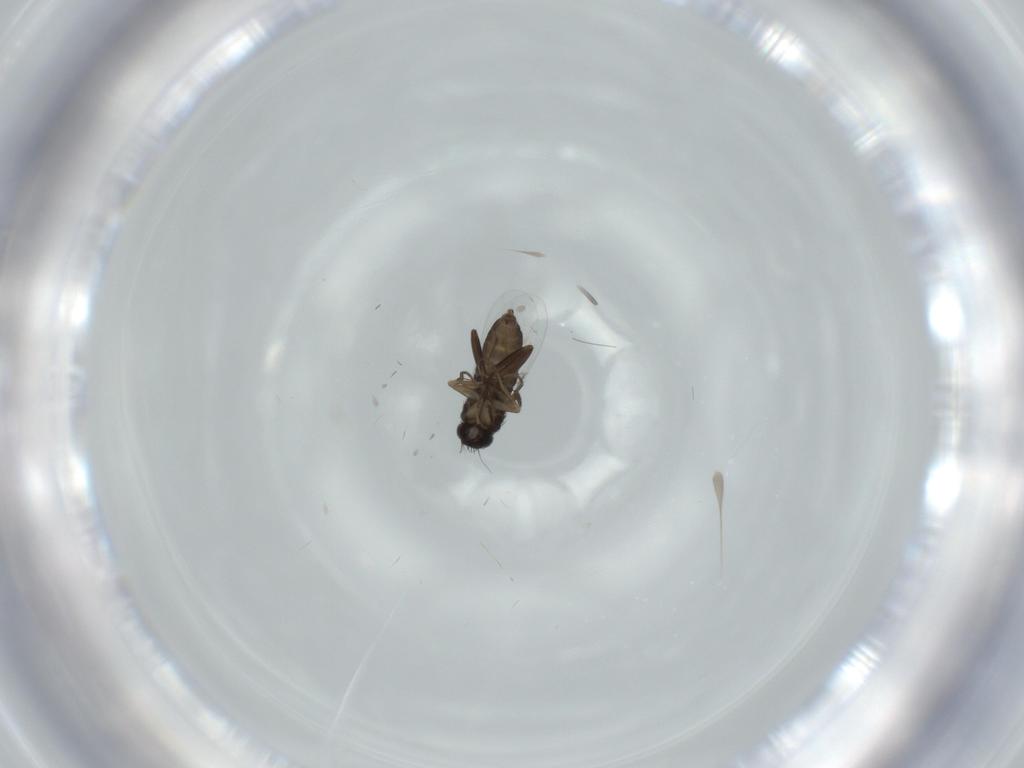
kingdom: Animalia
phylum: Arthropoda
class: Insecta
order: Diptera
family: Phoridae
